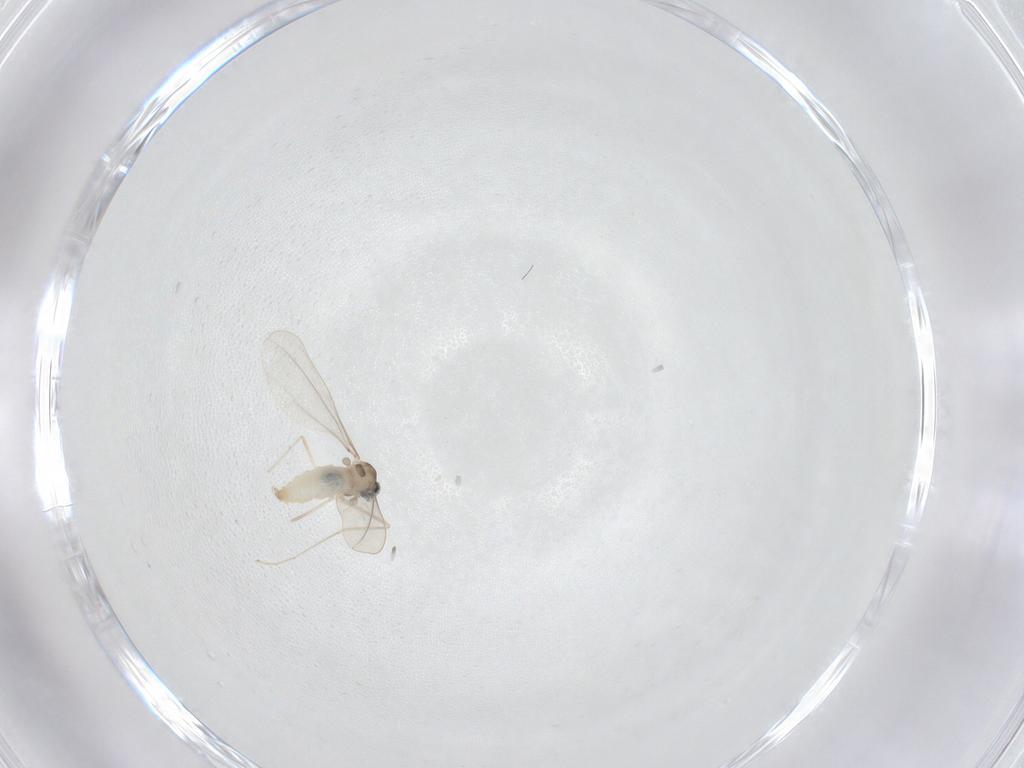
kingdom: Animalia
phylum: Arthropoda
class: Insecta
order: Diptera
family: Cecidomyiidae
